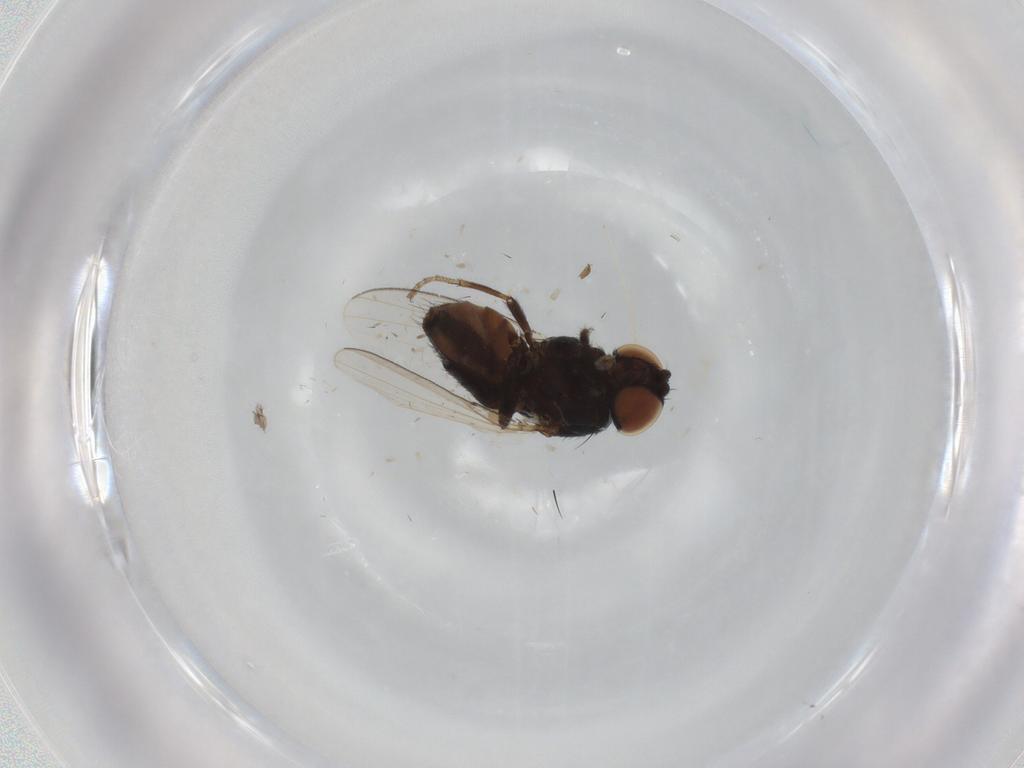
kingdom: Animalia
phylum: Arthropoda
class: Insecta
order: Diptera
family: Milichiidae
